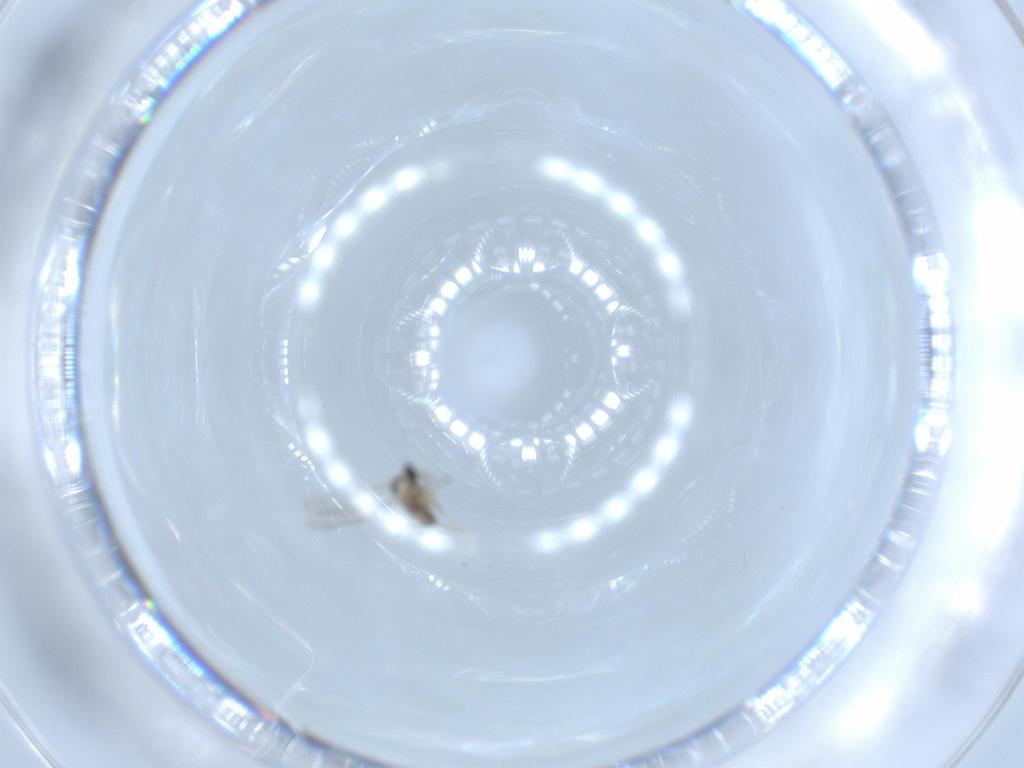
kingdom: Animalia
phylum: Arthropoda
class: Insecta
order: Diptera
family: Cecidomyiidae
